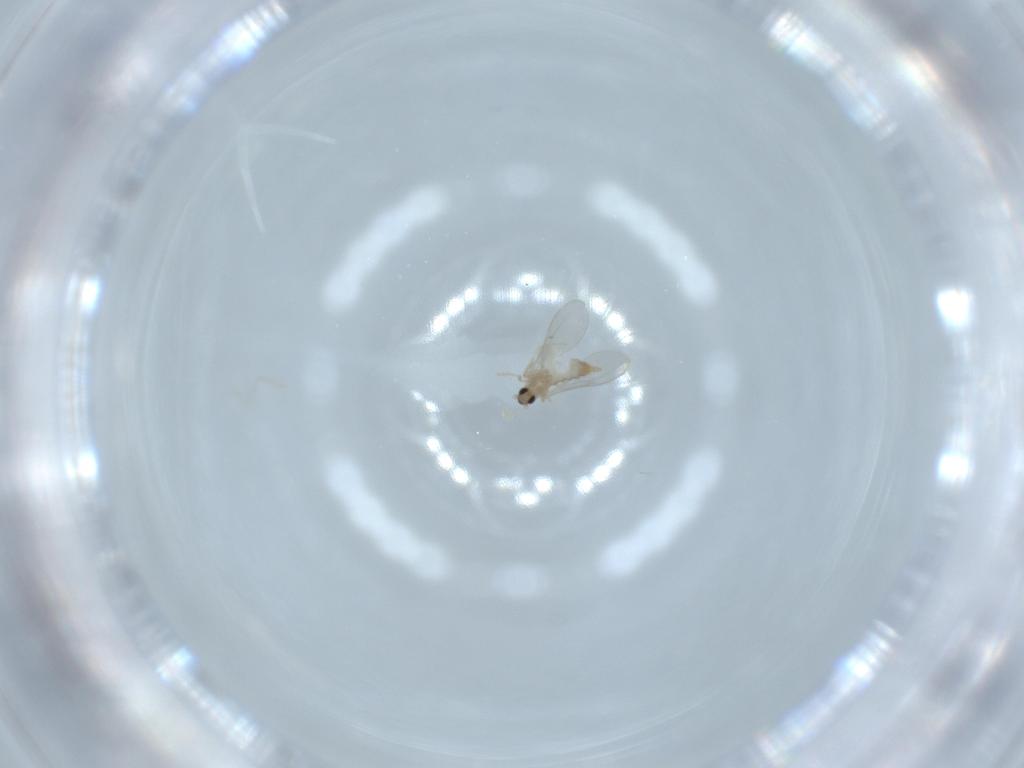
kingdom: Animalia
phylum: Arthropoda
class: Insecta
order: Diptera
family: Cecidomyiidae
